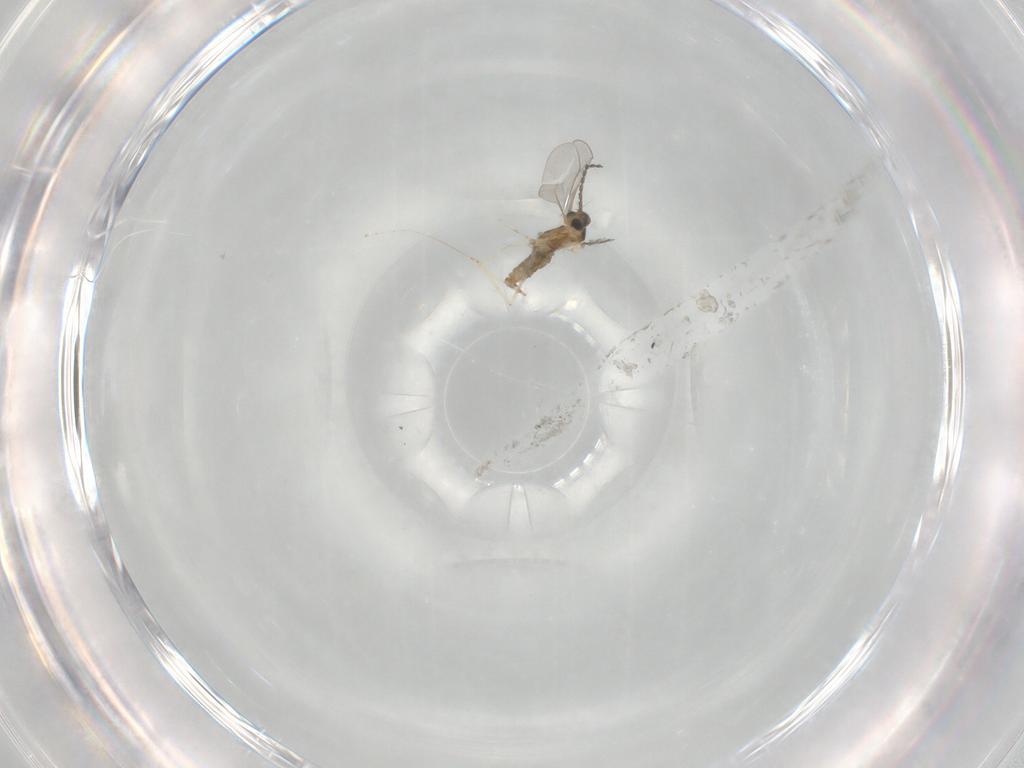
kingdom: Animalia
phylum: Arthropoda
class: Insecta
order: Diptera
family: Cecidomyiidae
